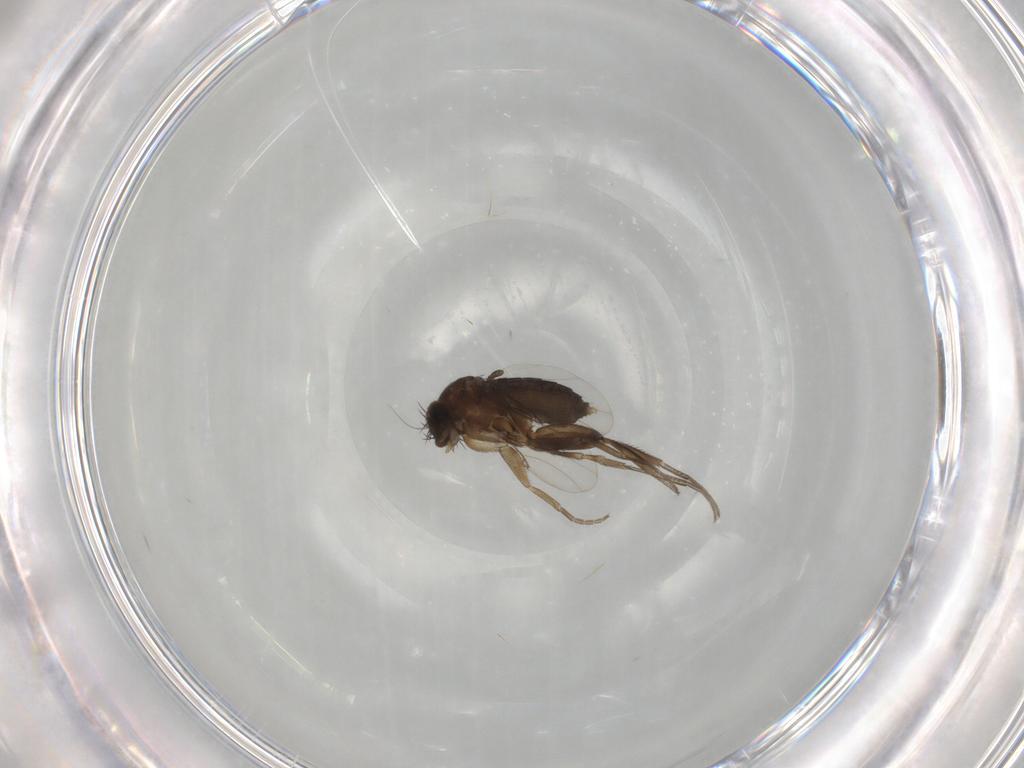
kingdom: Animalia
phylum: Arthropoda
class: Insecta
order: Diptera
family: Phoridae
